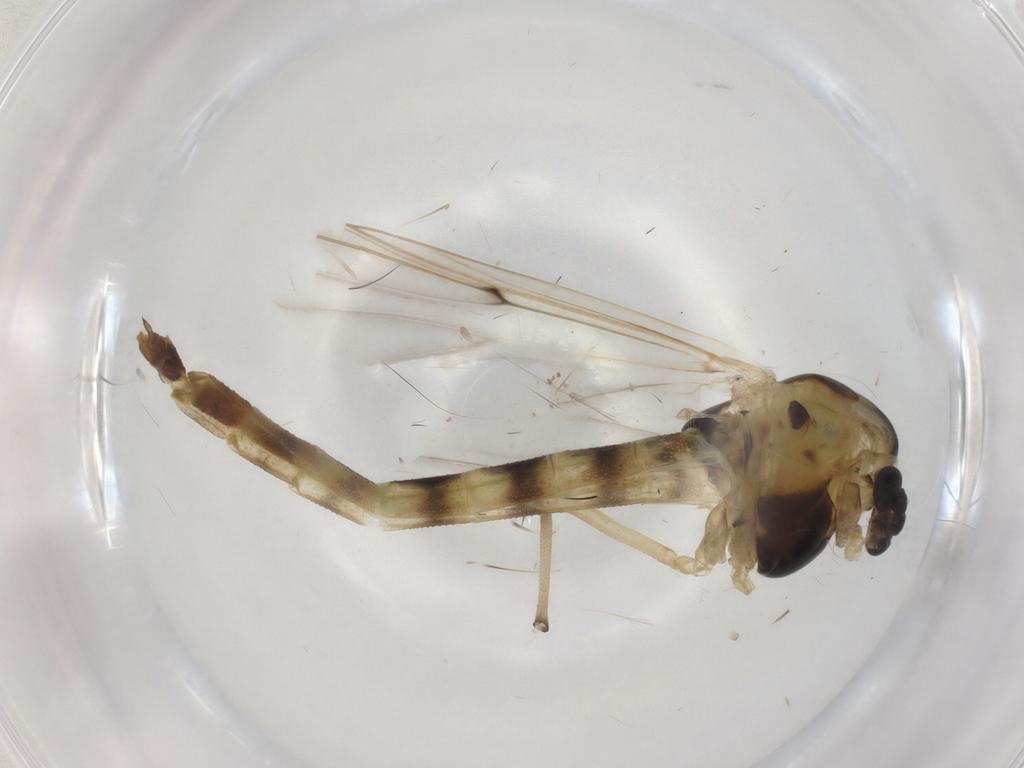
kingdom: Animalia
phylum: Arthropoda
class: Insecta
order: Diptera
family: Chironomidae
